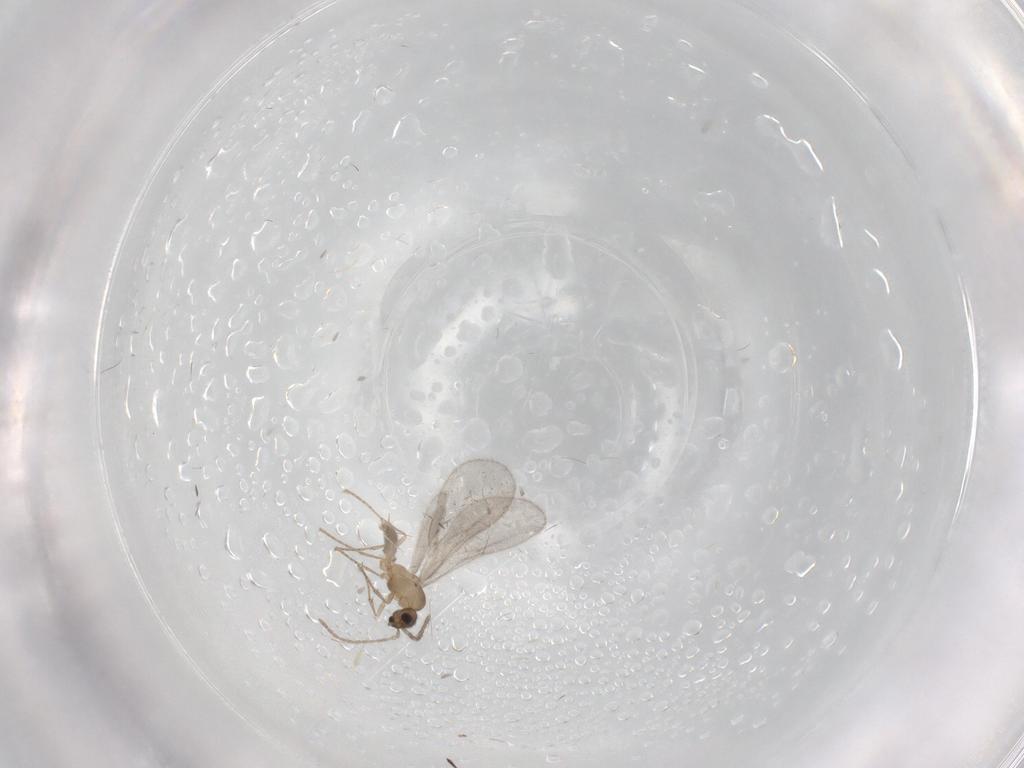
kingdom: Animalia
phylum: Arthropoda
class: Insecta
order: Hymenoptera
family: Formicidae
